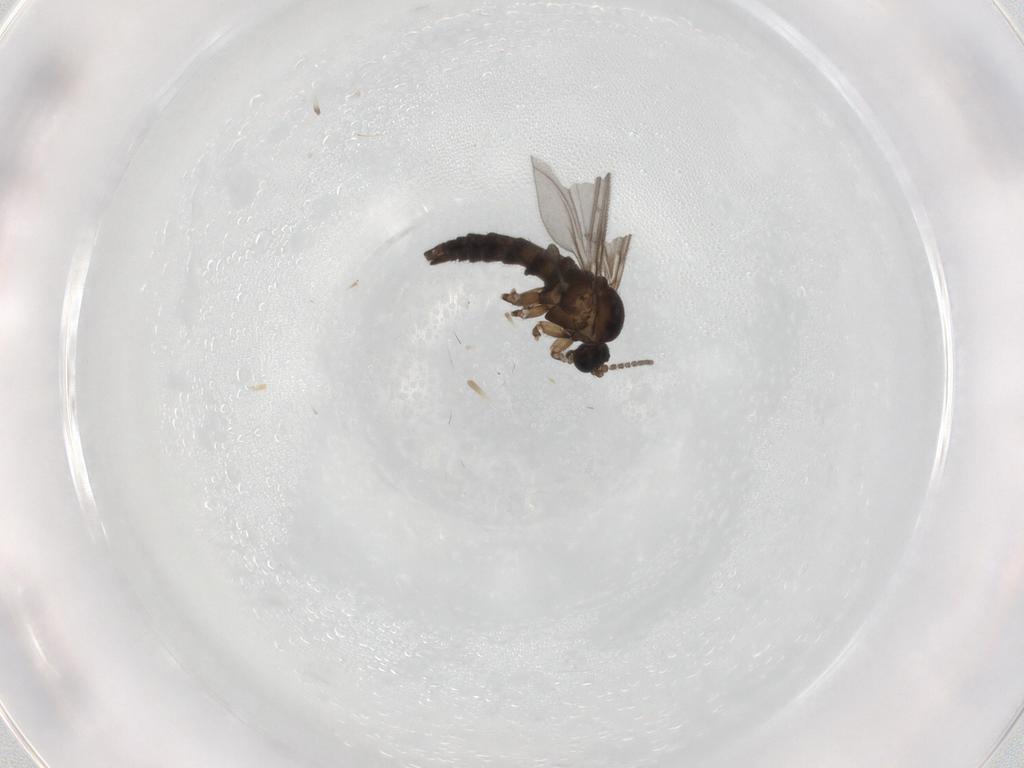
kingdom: Animalia
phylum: Arthropoda
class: Insecta
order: Diptera
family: Sciaridae
